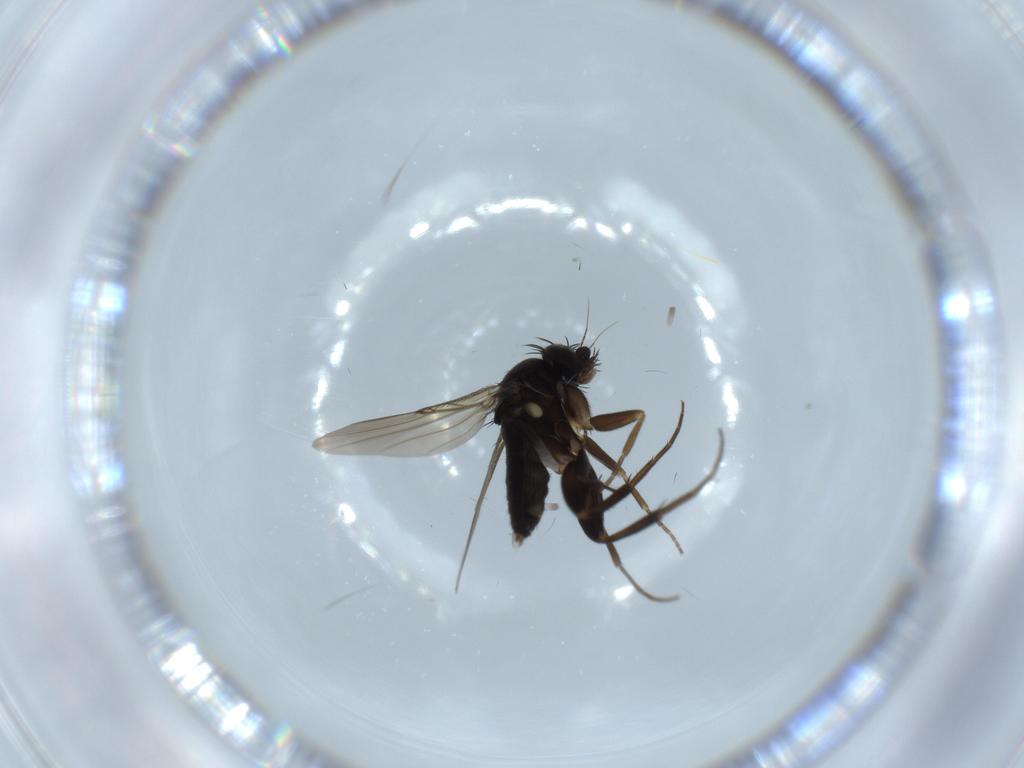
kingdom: Animalia
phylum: Arthropoda
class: Insecta
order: Diptera
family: Phoridae
